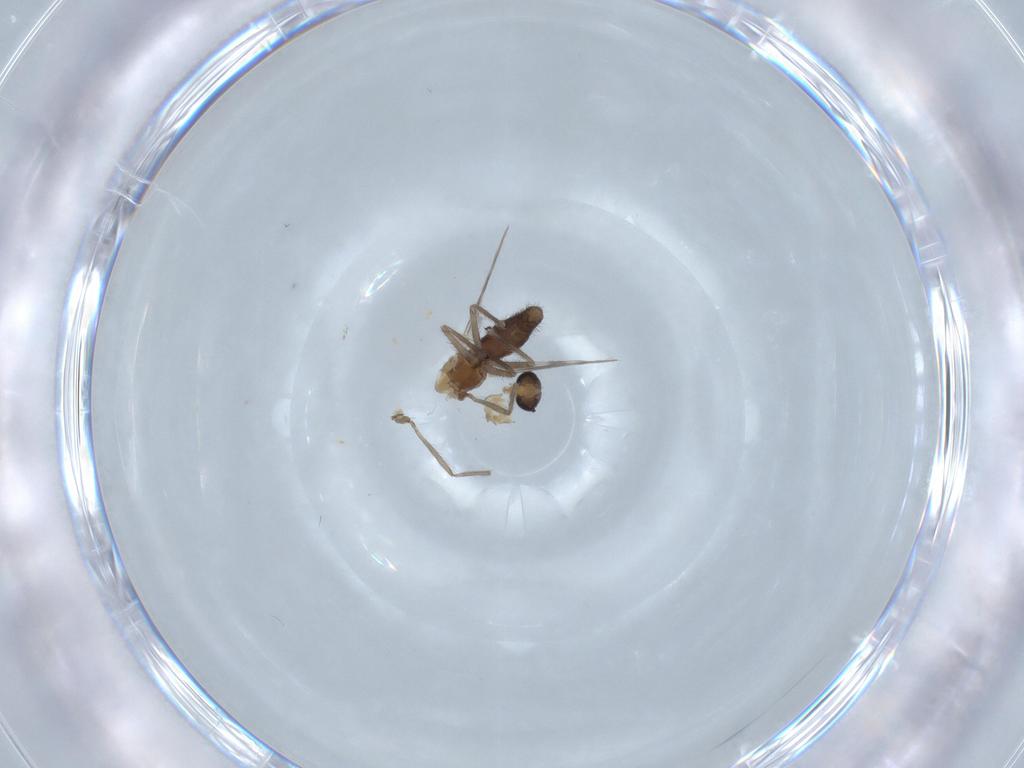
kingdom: Animalia
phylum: Arthropoda
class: Insecta
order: Diptera
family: Chironomidae
